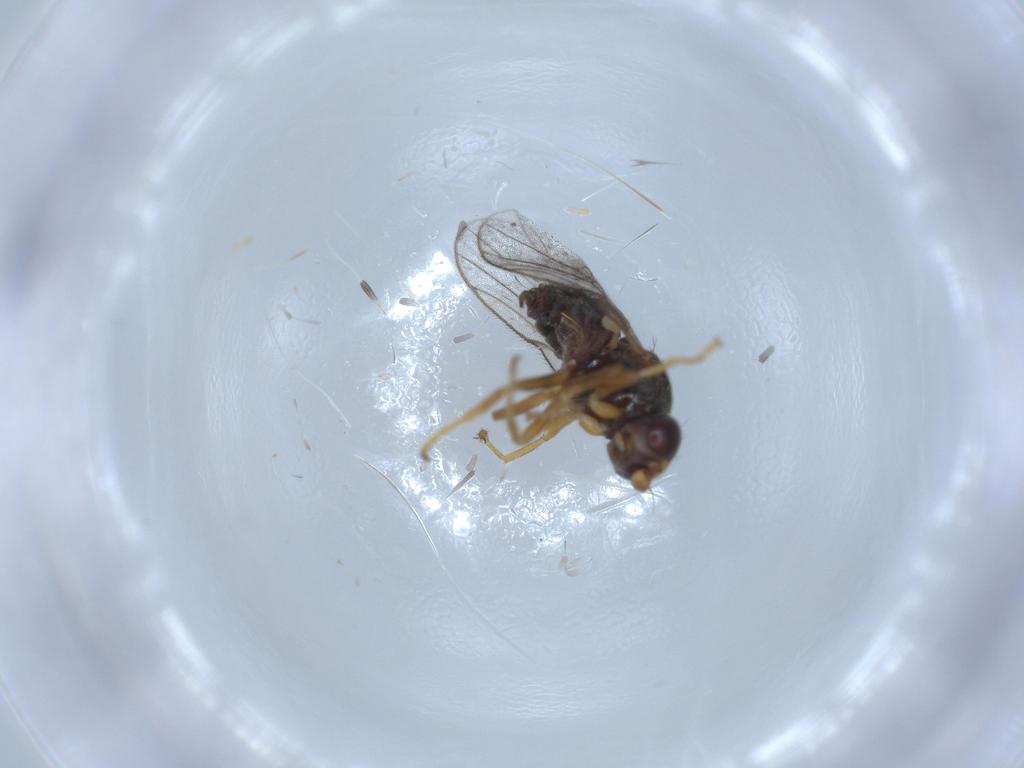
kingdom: Animalia
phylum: Arthropoda
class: Insecta
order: Diptera
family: Chloropidae
